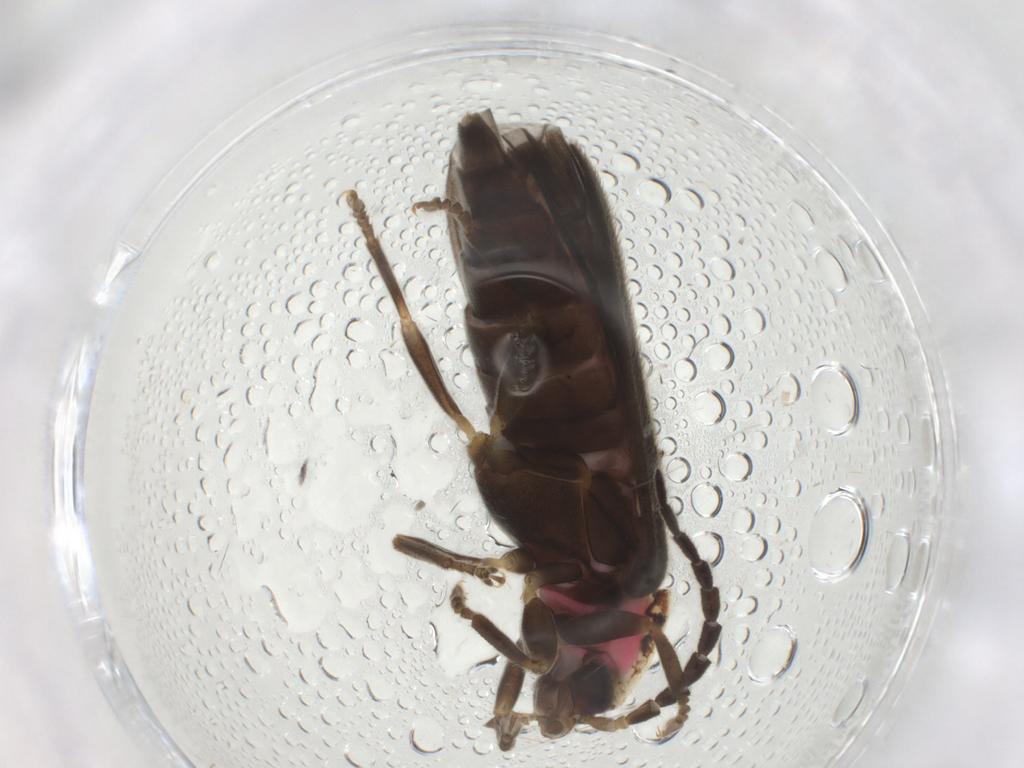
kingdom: Animalia
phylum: Arthropoda
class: Insecta
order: Coleoptera
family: Lampyridae
